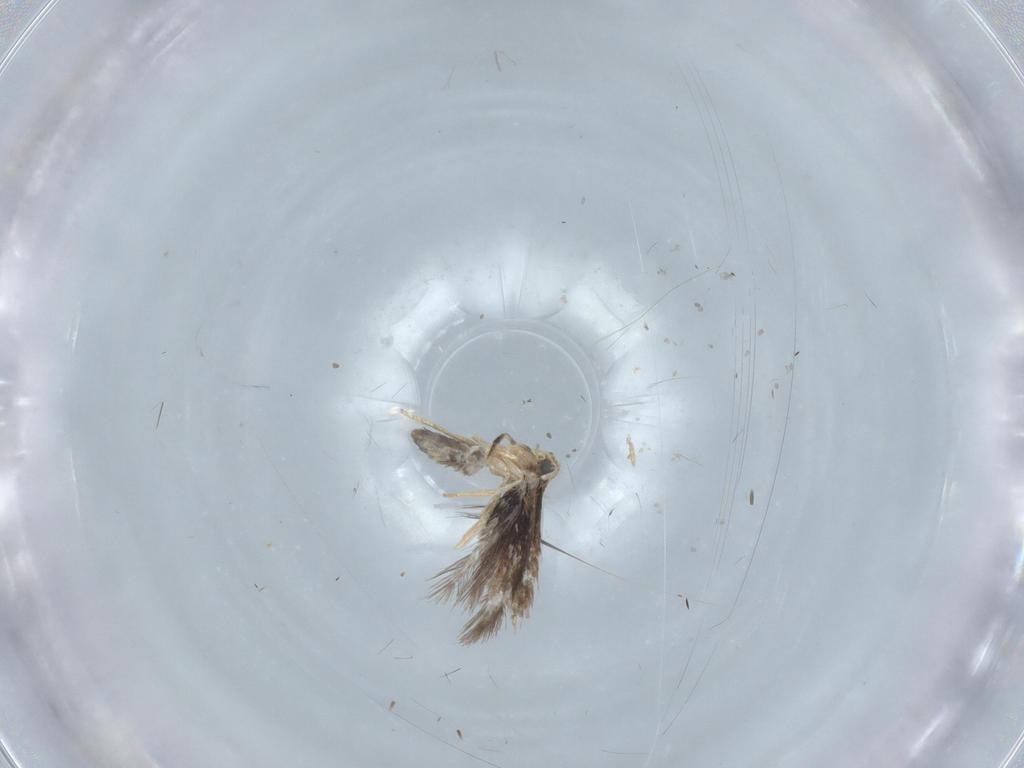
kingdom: Animalia
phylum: Arthropoda
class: Insecta
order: Lepidoptera
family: Nepticulidae
